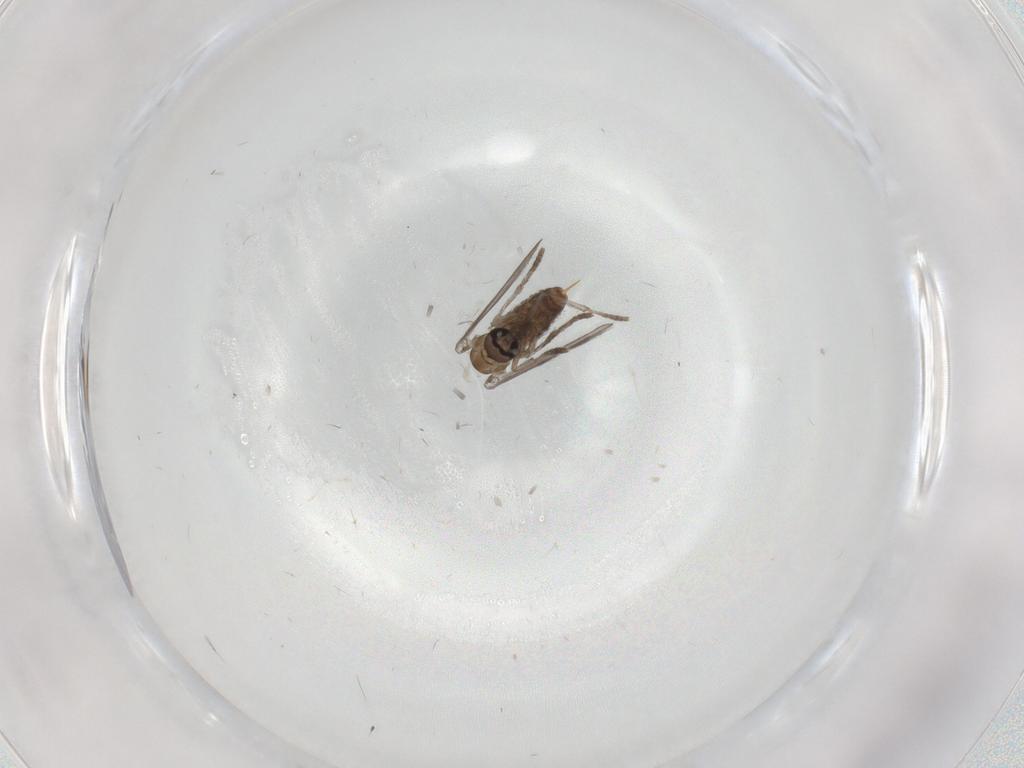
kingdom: Animalia
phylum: Arthropoda
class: Insecta
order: Diptera
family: Psychodidae
